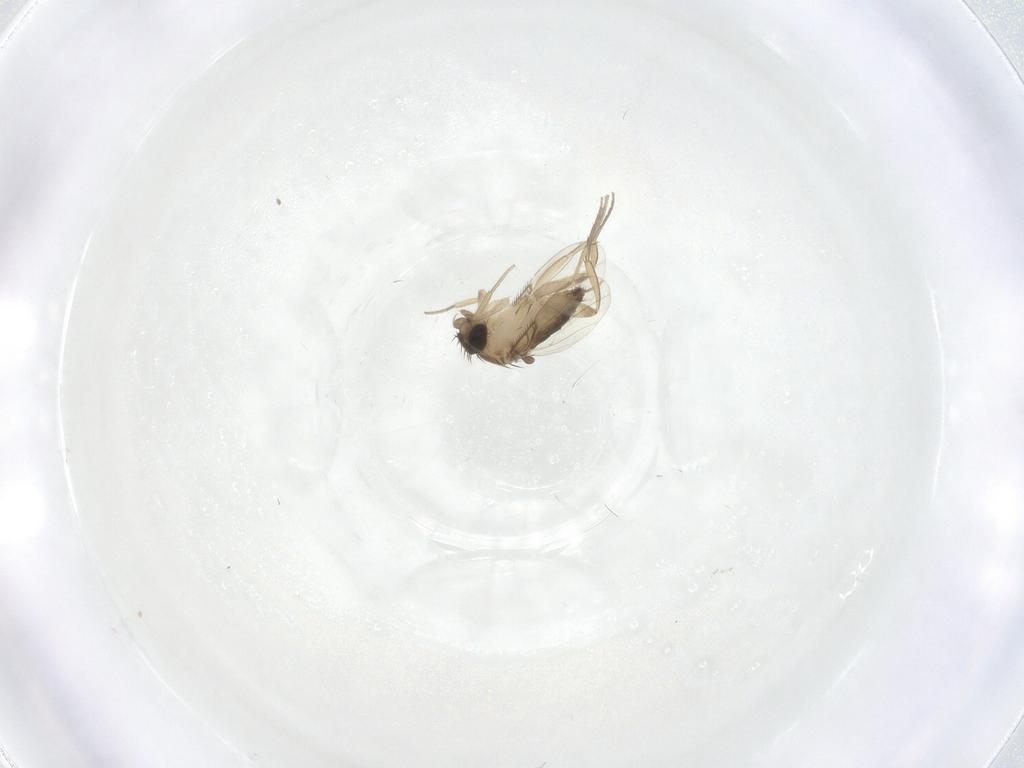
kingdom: Animalia
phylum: Arthropoda
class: Insecta
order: Diptera
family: Phoridae
